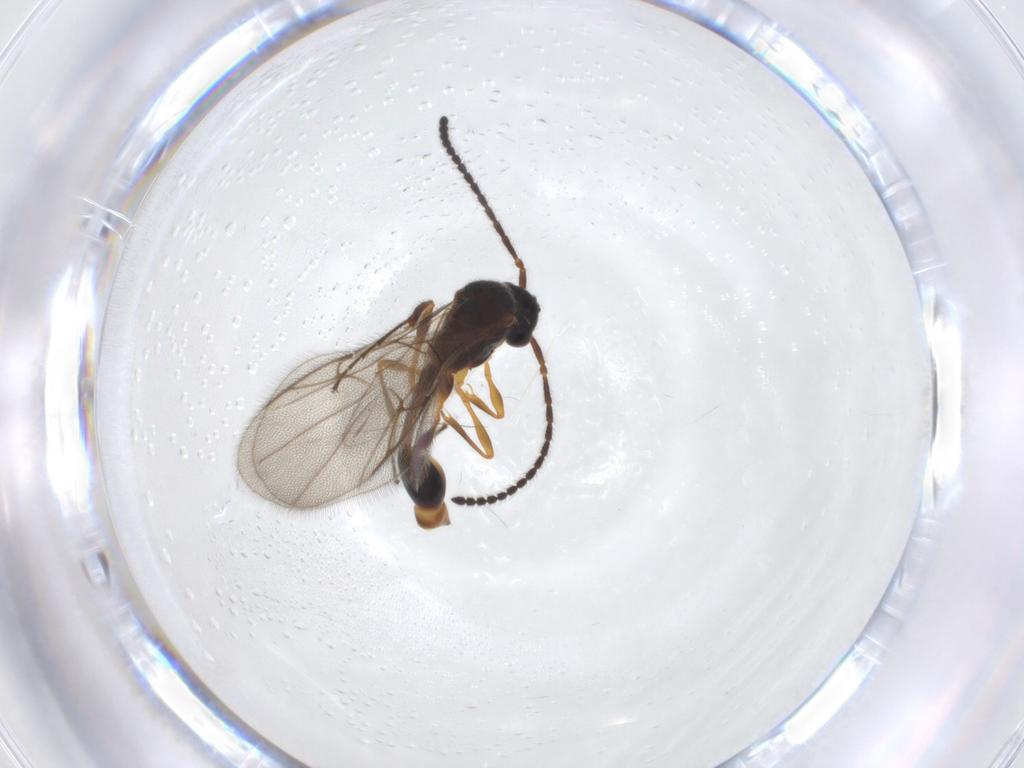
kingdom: Animalia
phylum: Arthropoda
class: Insecta
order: Hymenoptera
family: Diapriidae
